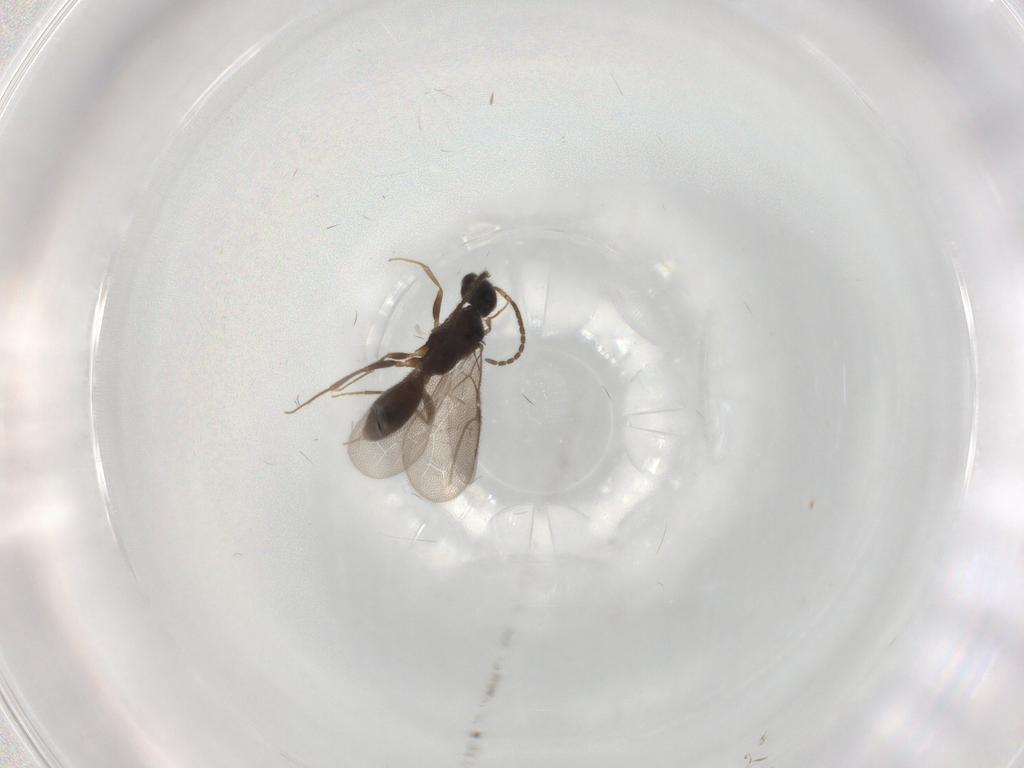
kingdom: Animalia
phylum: Arthropoda
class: Insecta
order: Hymenoptera
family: Bethylidae
